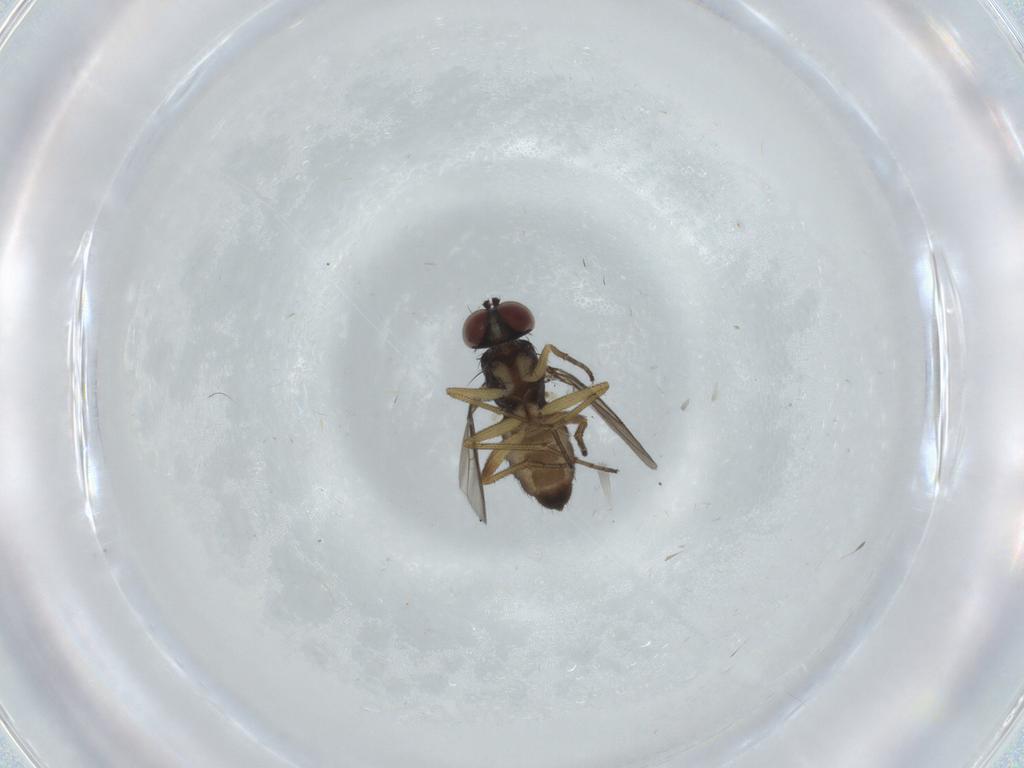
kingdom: Animalia
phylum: Arthropoda
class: Insecta
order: Diptera
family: Dolichopodidae
